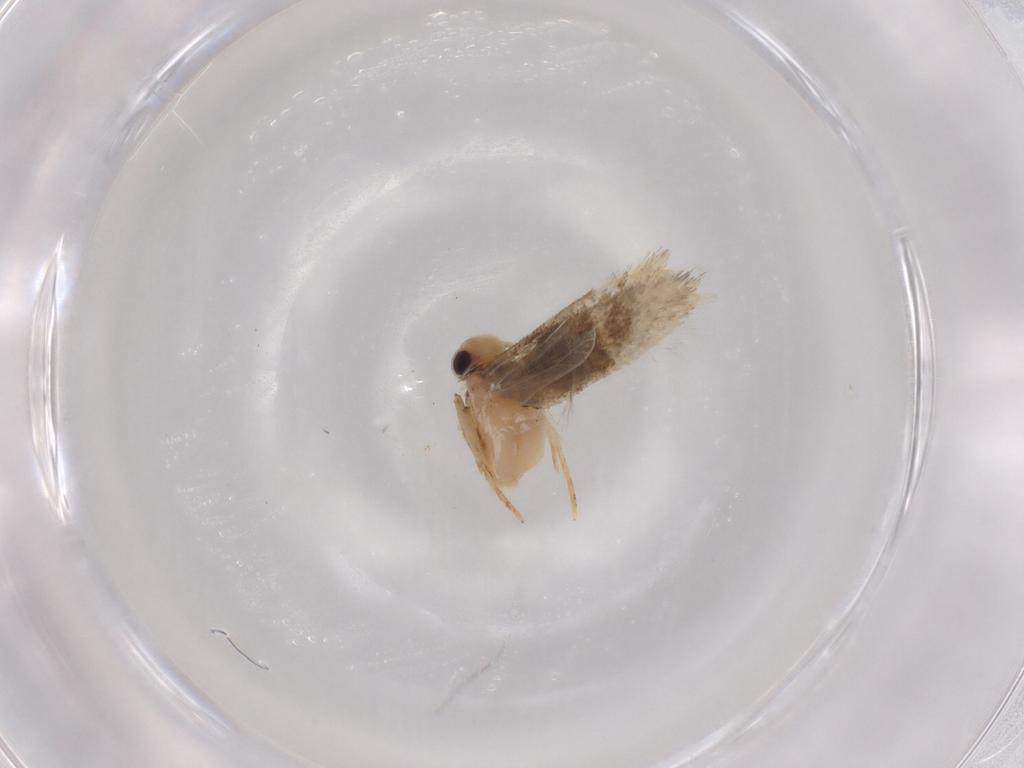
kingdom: Animalia
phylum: Arthropoda
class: Insecta
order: Lepidoptera
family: Gelechiidae
